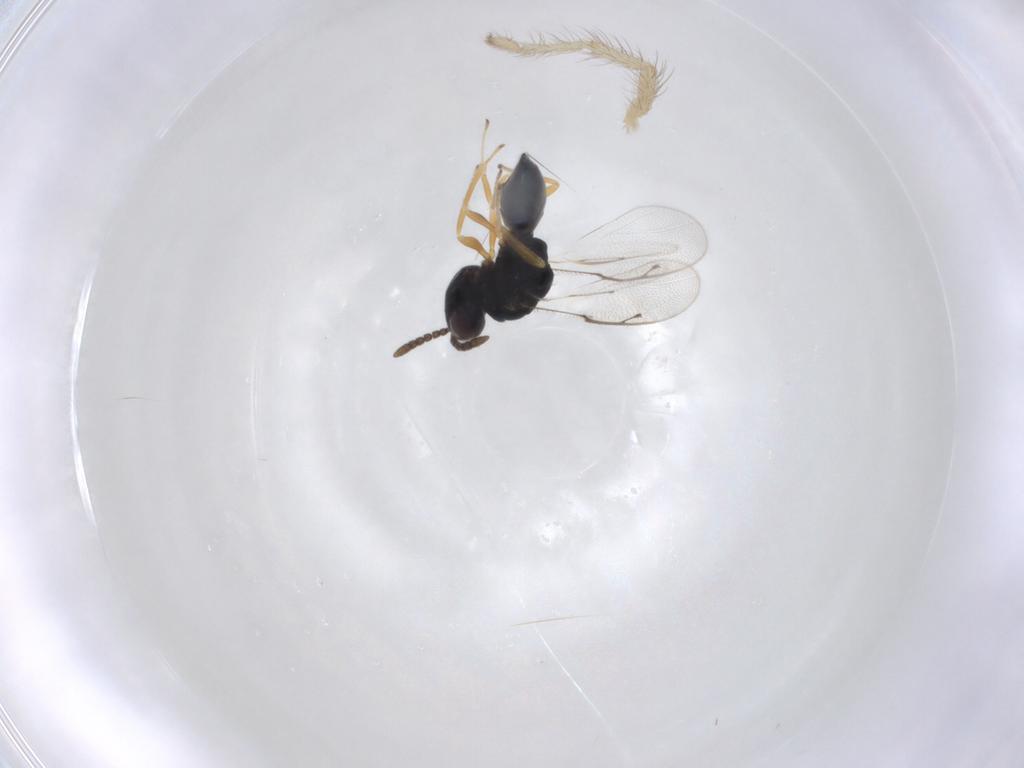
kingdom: Animalia
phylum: Arthropoda
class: Insecta
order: Hymenoptera
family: Pteromalidae
